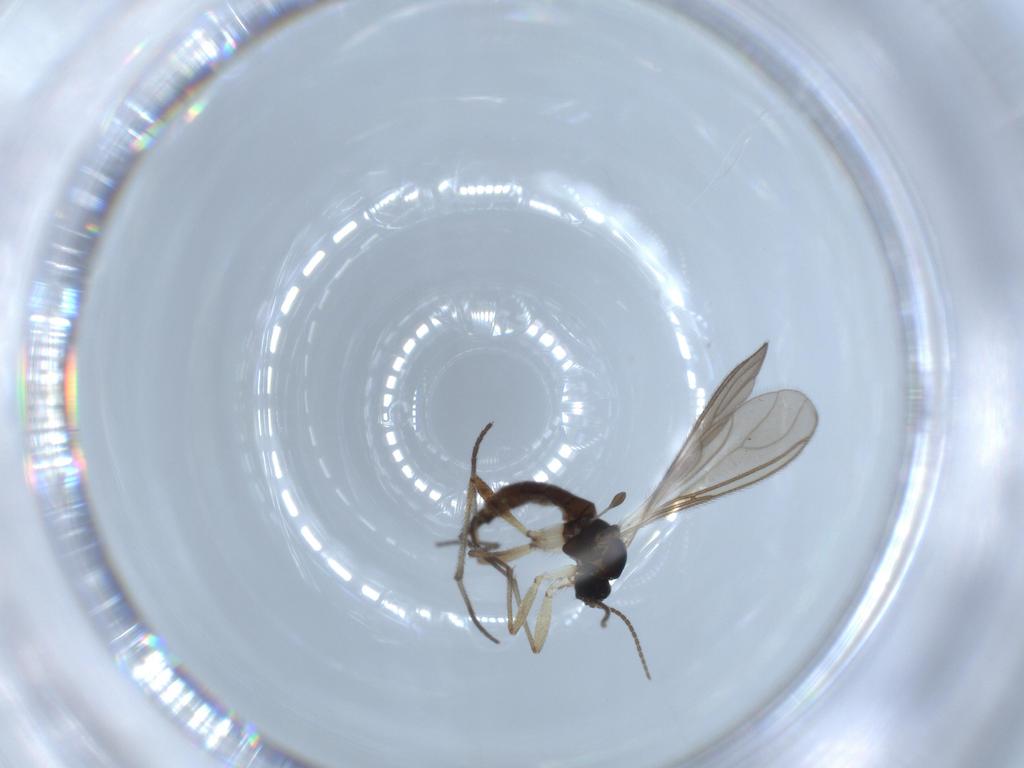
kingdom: Animalia
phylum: Arthropoda
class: Insecta
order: Diptera
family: Sciaridae
